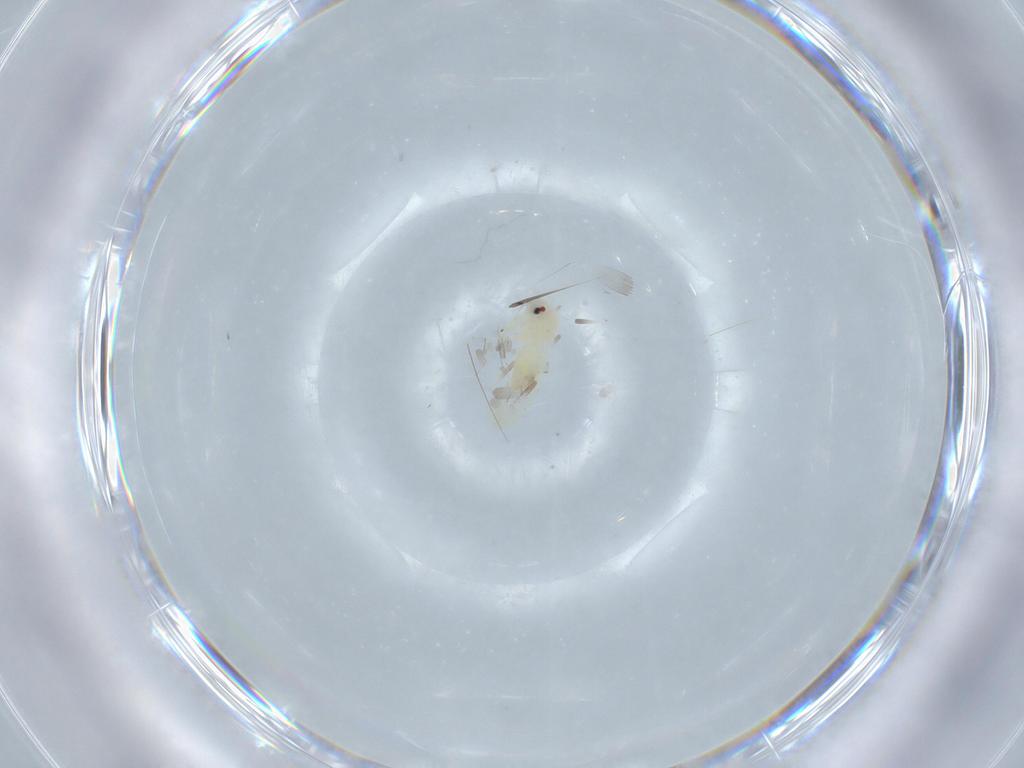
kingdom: Animalia
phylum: Arthropoda
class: Insecta
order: Hemiptera
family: Aleyrodidae
